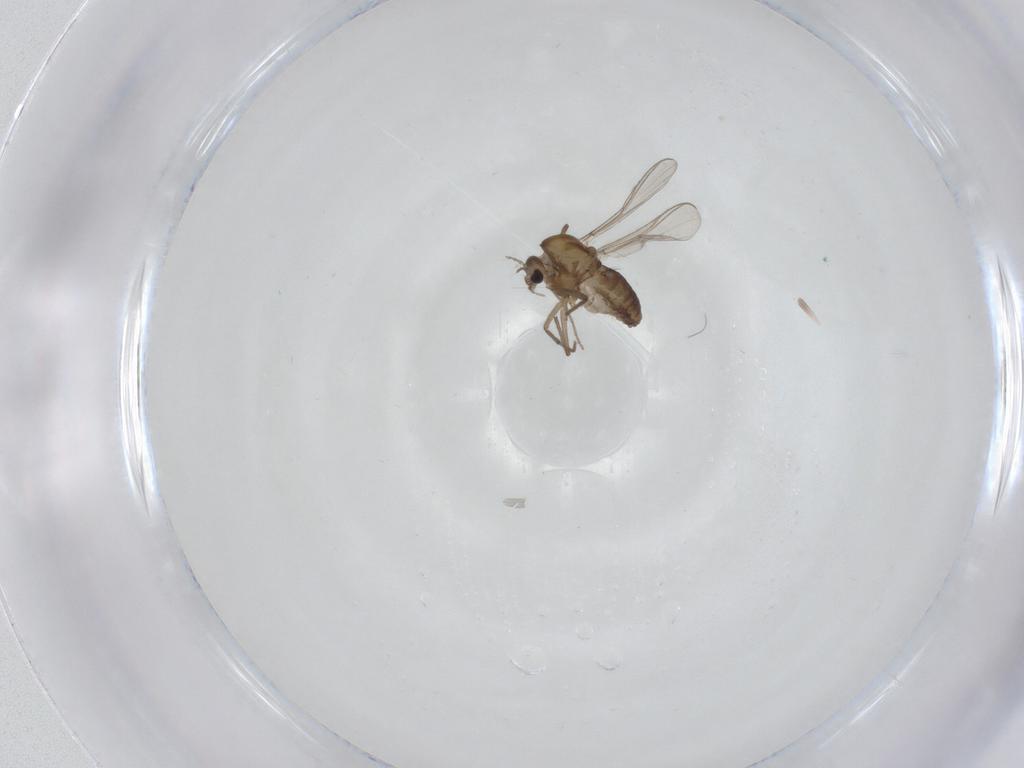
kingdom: Animalia
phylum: Arthropoda
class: Insecta
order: Diptera
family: Chironomidae
